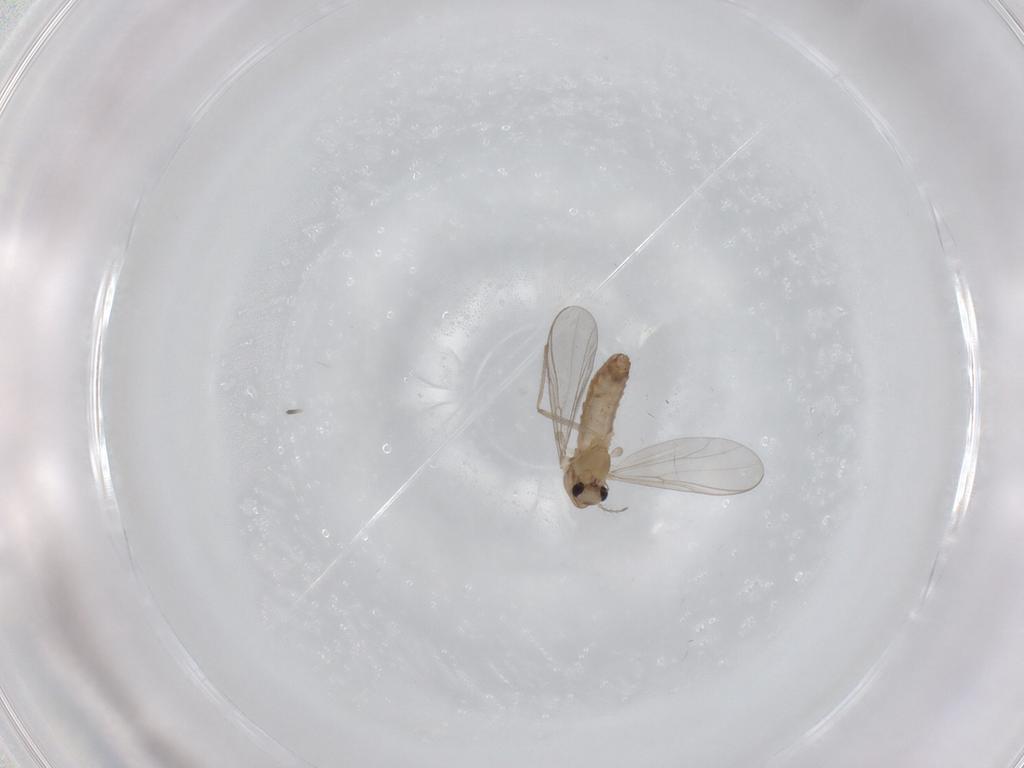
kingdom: Animalia
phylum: Arthropoda
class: Insecta
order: Diptera
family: Chironomidae
